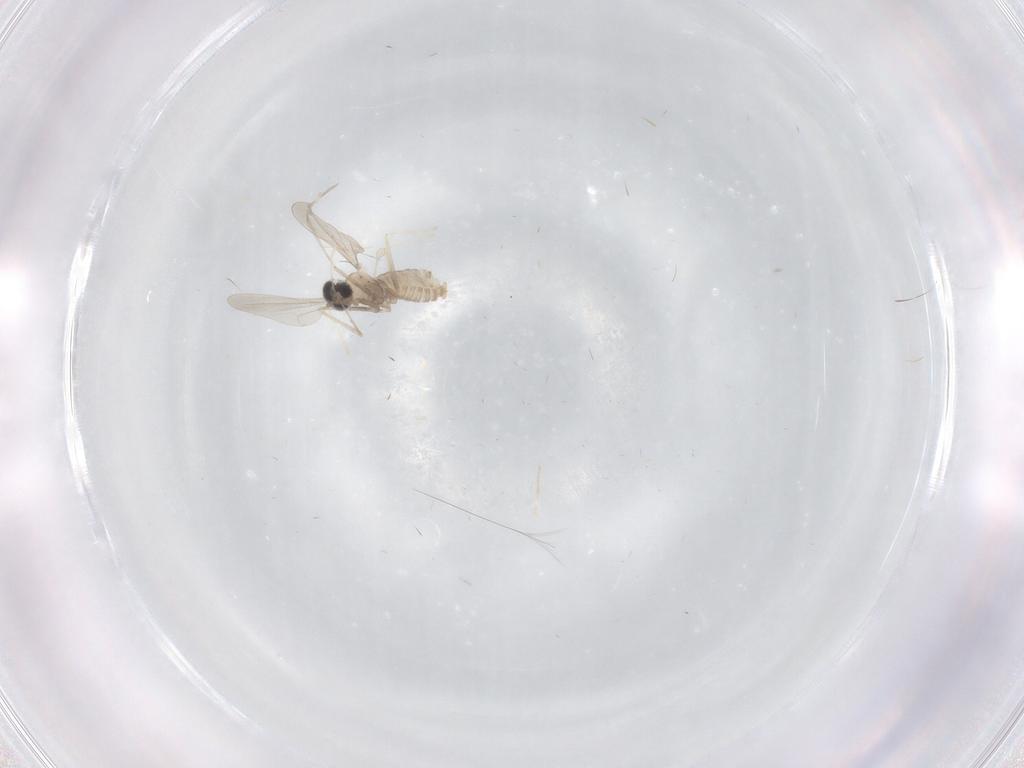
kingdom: Animalia
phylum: Arthropoda
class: Insecta
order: Diptera
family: Cecidomyiidae
